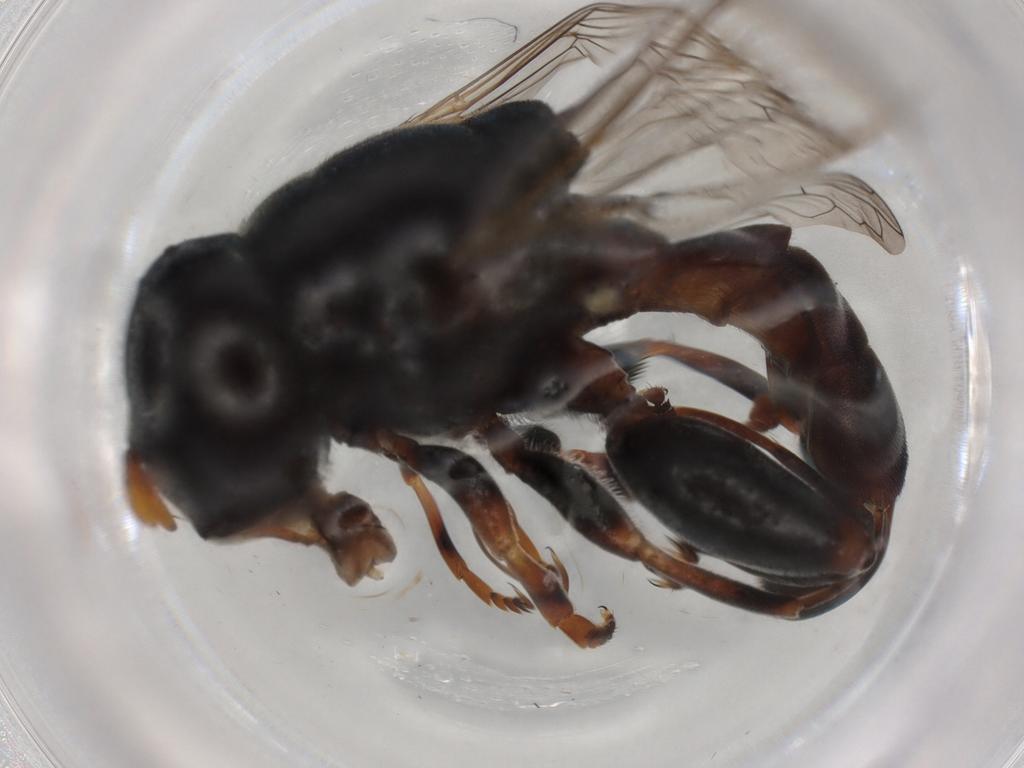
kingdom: Animalia
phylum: Arthropoda
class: Insecta
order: Diptera
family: Syrphidae
